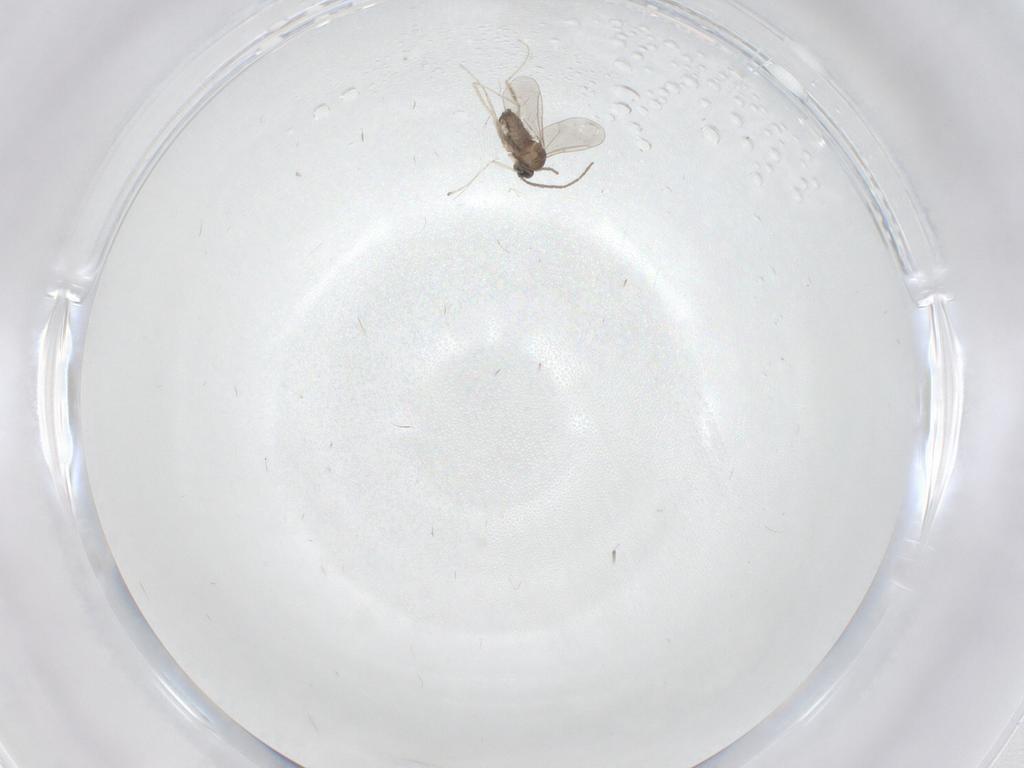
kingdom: Animalia
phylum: Arthropoda
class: Insecta
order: Diptera
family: Cecidomyiidae
